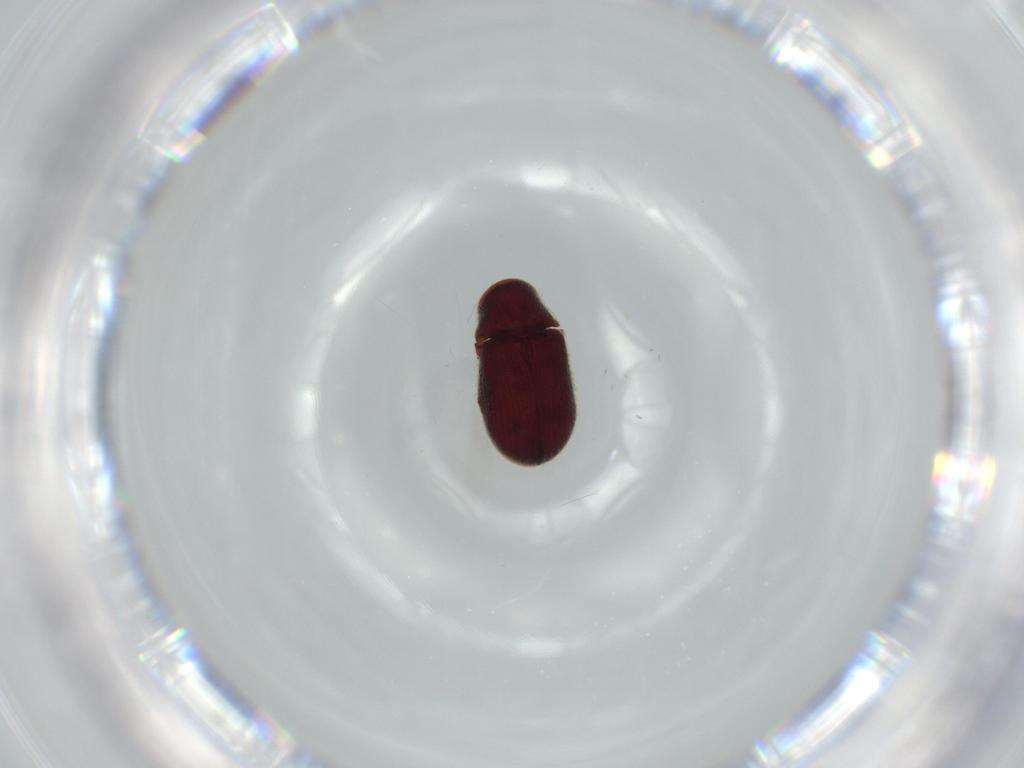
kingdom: Animalia
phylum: Arthropoda
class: Insecta
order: Coleoptera
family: Ptinidae
